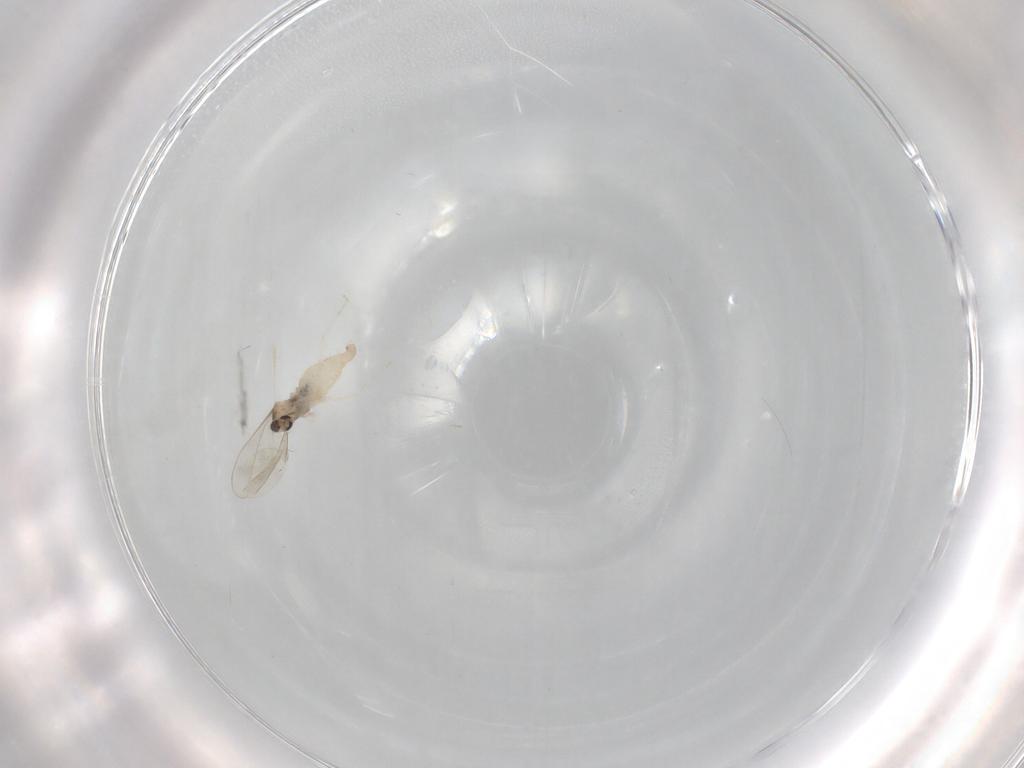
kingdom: Animalia
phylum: Arthropoda
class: Insecta
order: Diptera
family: Cecidomyiidae
